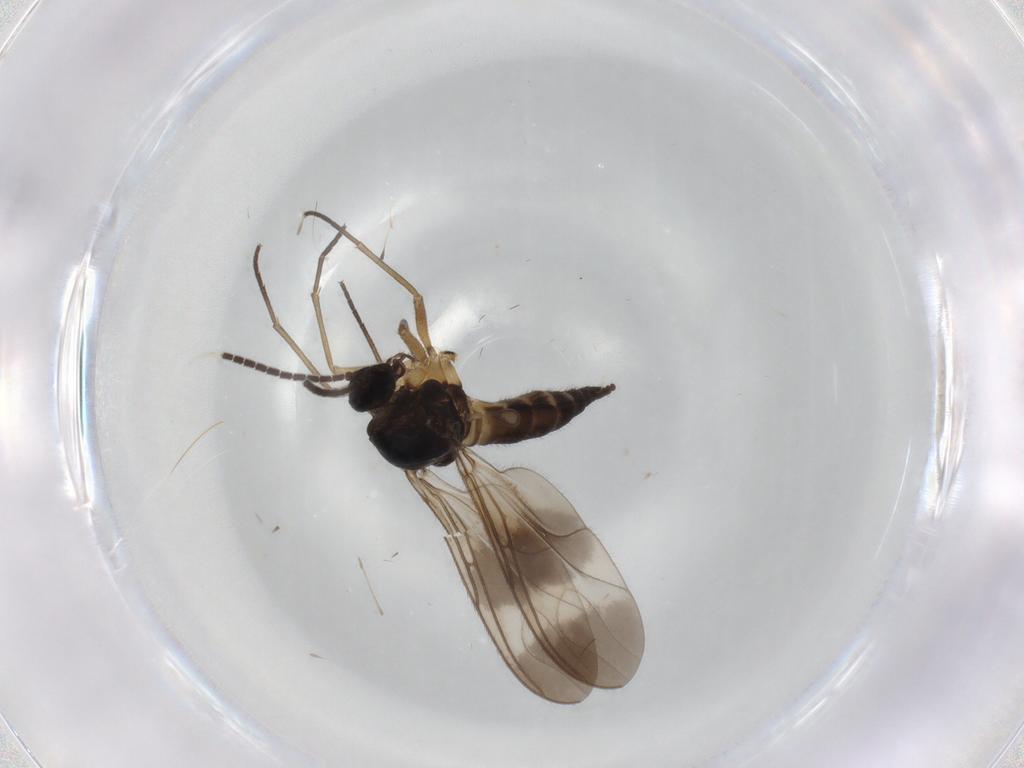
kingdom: Animalia
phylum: Arthropoda
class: Insecta
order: Diptera
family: Sciaridae
